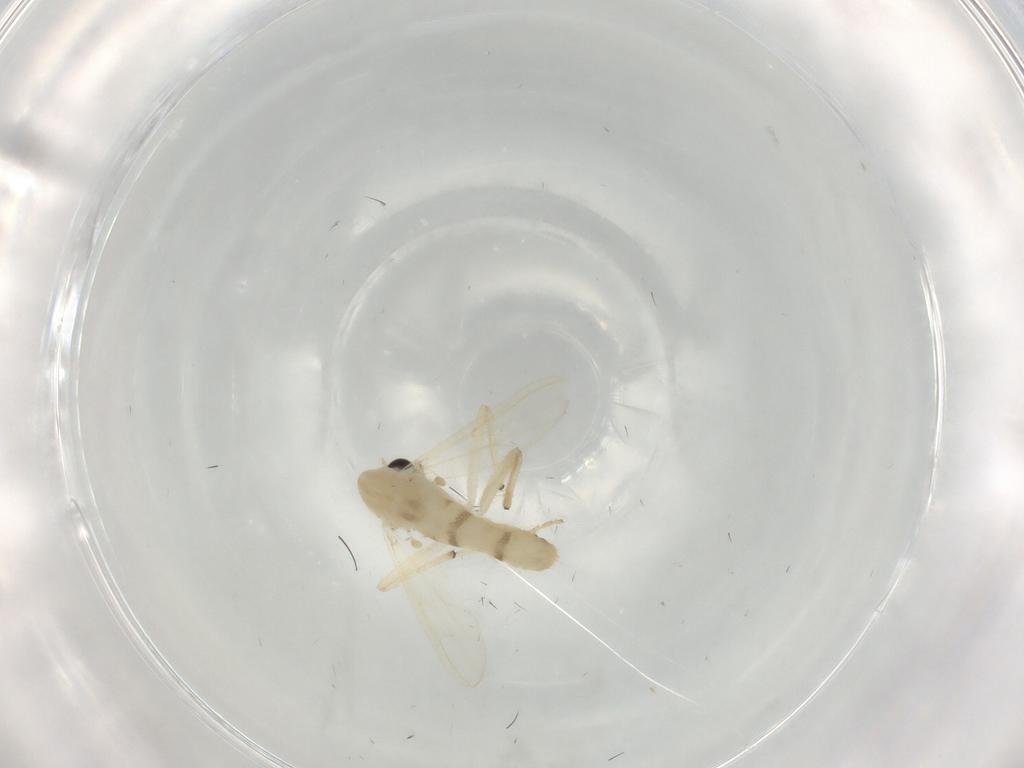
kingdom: Animalia
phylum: Arthropoda
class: Insecta
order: Diptera
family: Chironomidae
